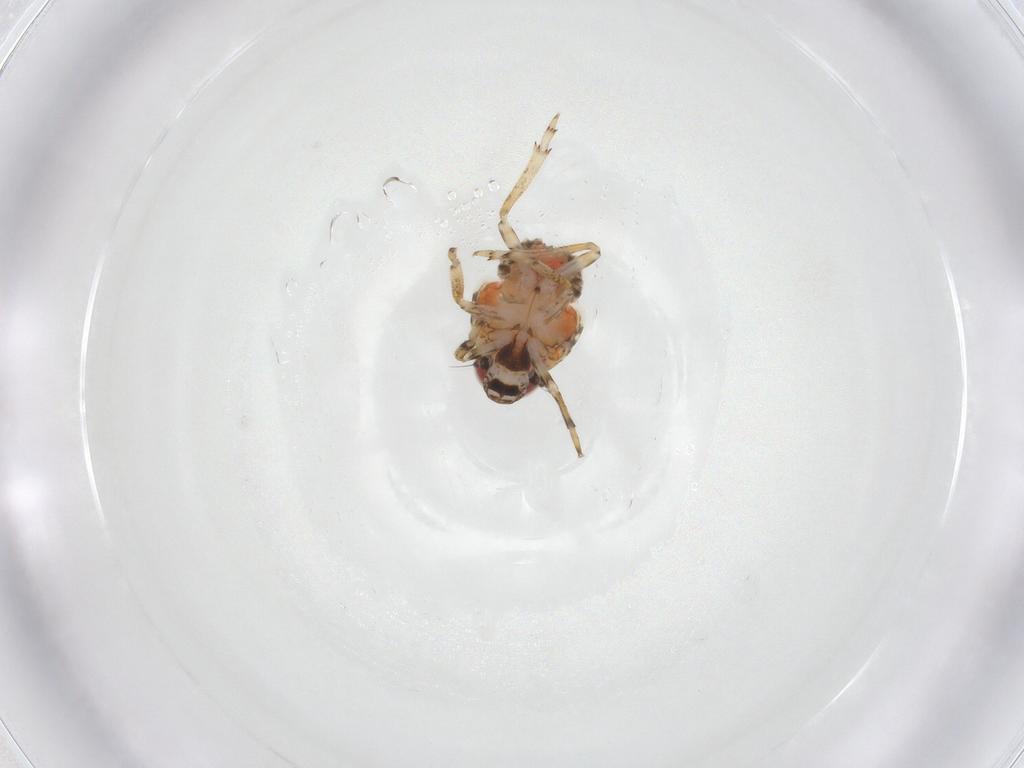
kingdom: Animalia
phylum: Arthropoda
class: Insecta
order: Hemiptera
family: Issidae
